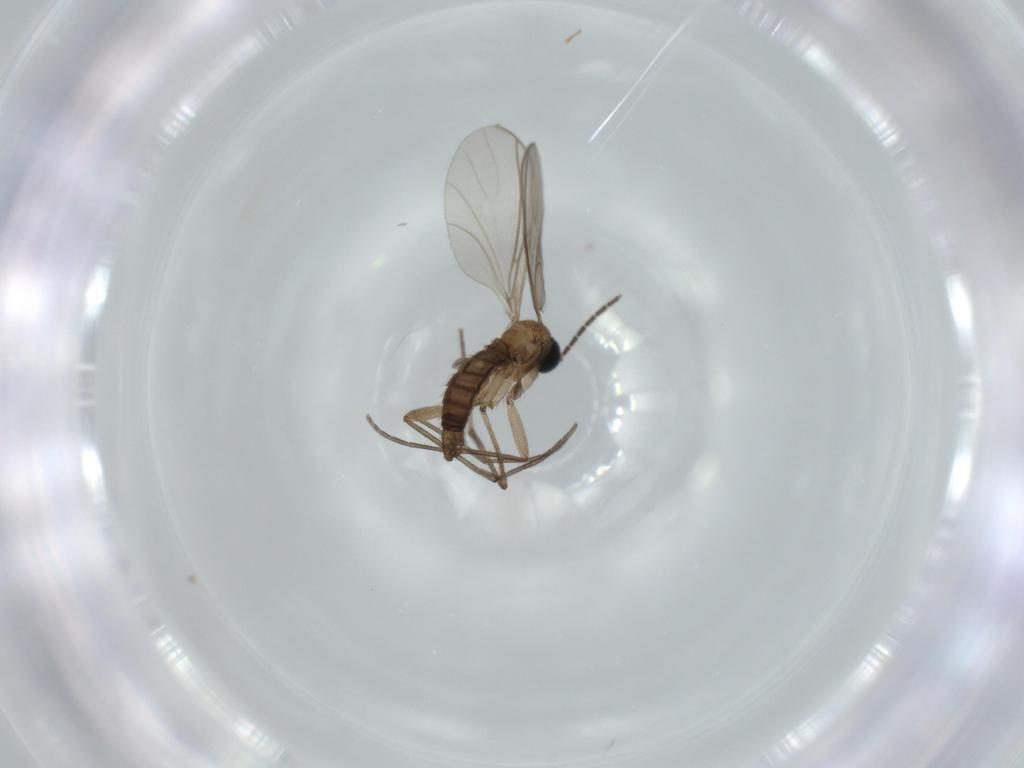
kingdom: Animalia
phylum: Arthropoda
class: Insecta
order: Diptera
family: Sciaridae
